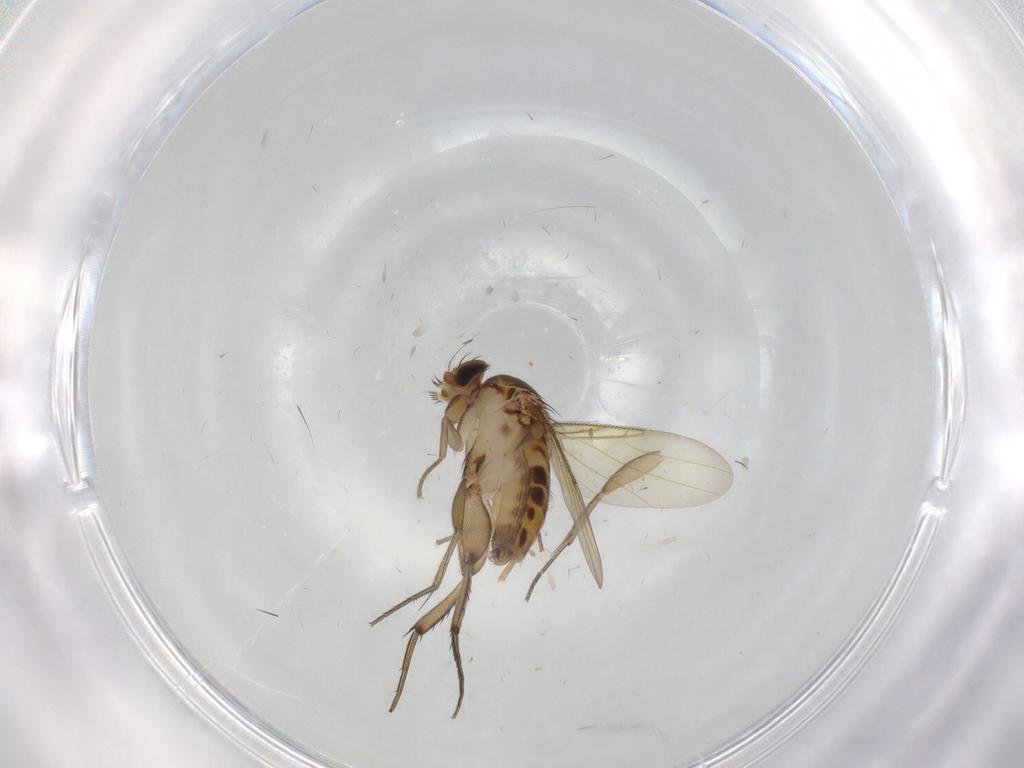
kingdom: Animalia
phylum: Arthropoda
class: Insecta
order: Diptera
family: Phoridae
